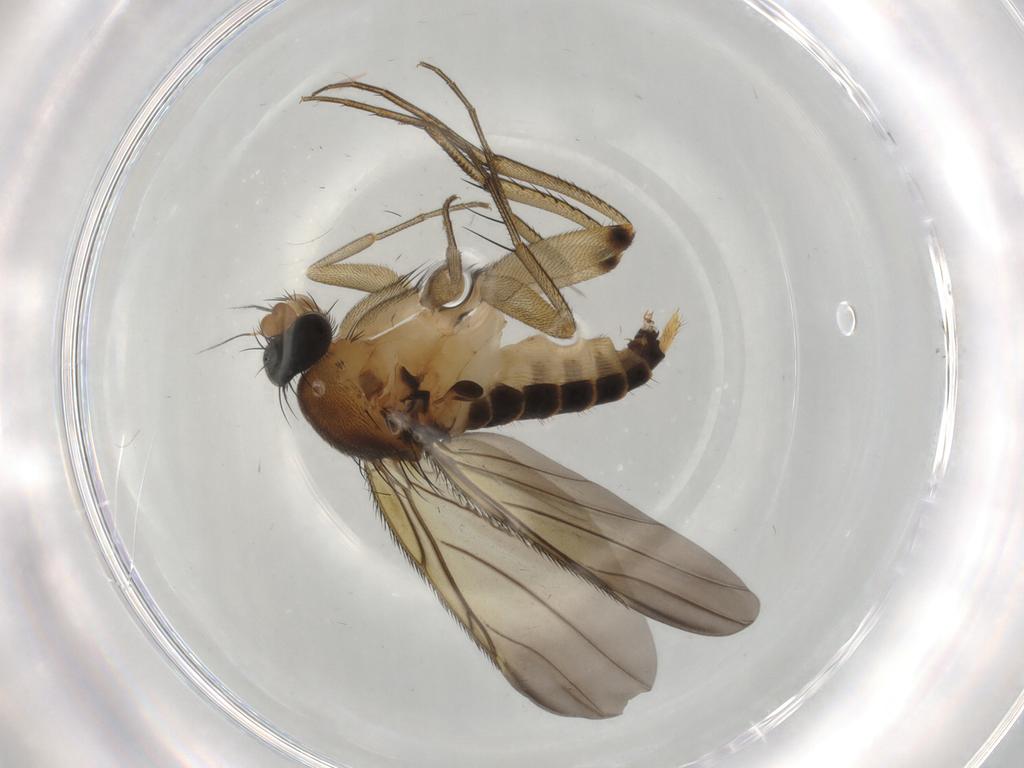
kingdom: Animalia
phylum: Arthropoda
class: Insecta
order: Diptera
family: Phoridae
